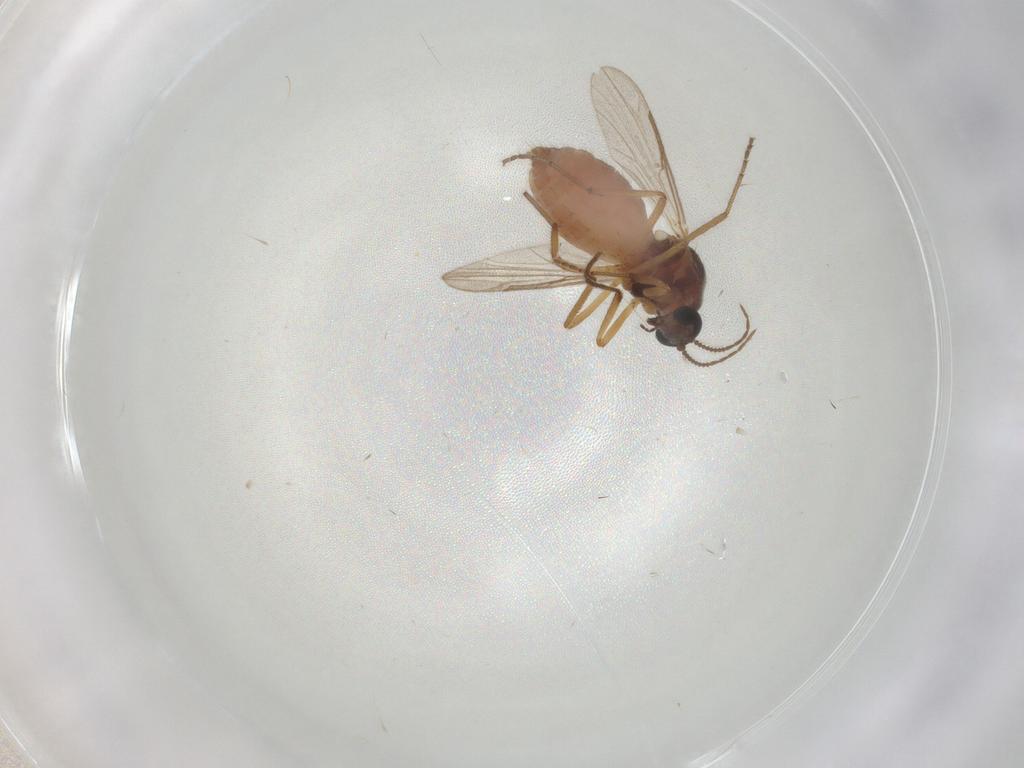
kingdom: Animalia
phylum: Arthropoda
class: Insecta
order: Diptera
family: Ceratopogonidae
